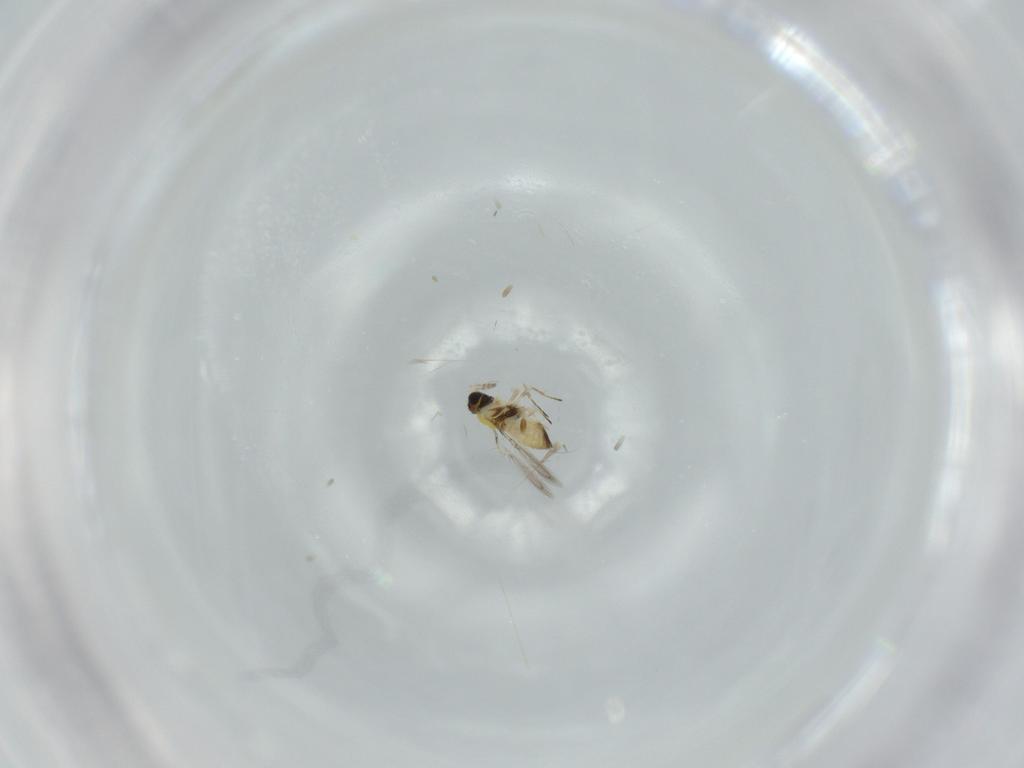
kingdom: Animalia
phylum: Arthropoda
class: Insecta
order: Hymenoptera
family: Trichogrammatidae
